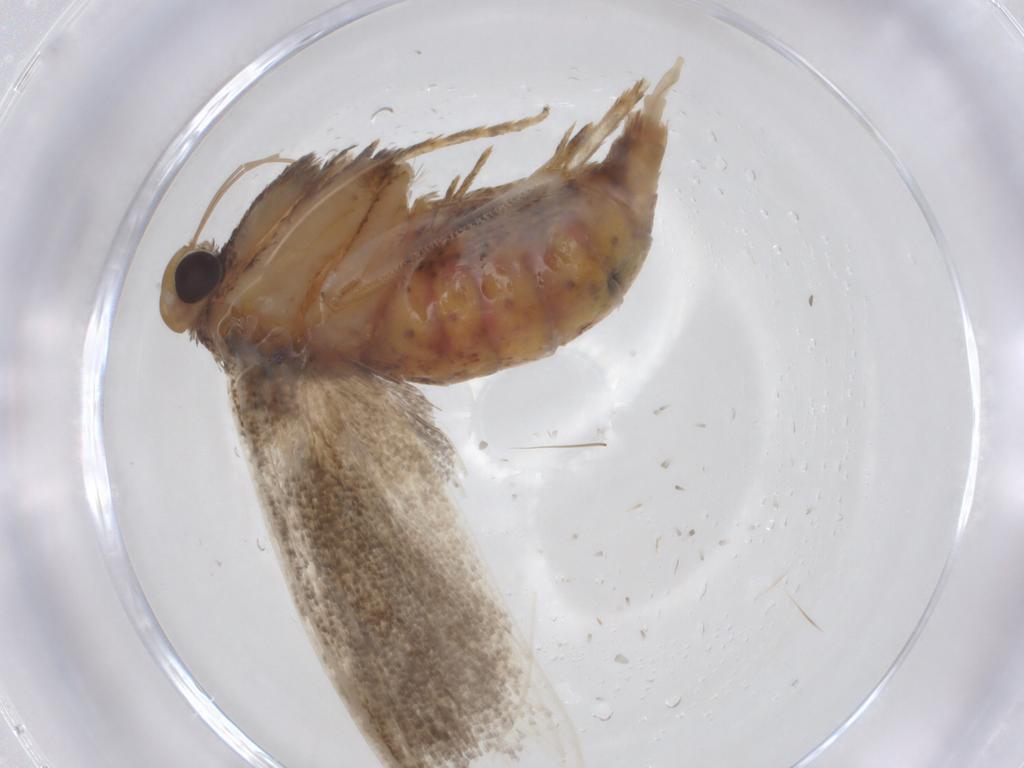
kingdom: Animalia
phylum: Arthropoda
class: Insecta
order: Lepidoptera
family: Carposinidae
